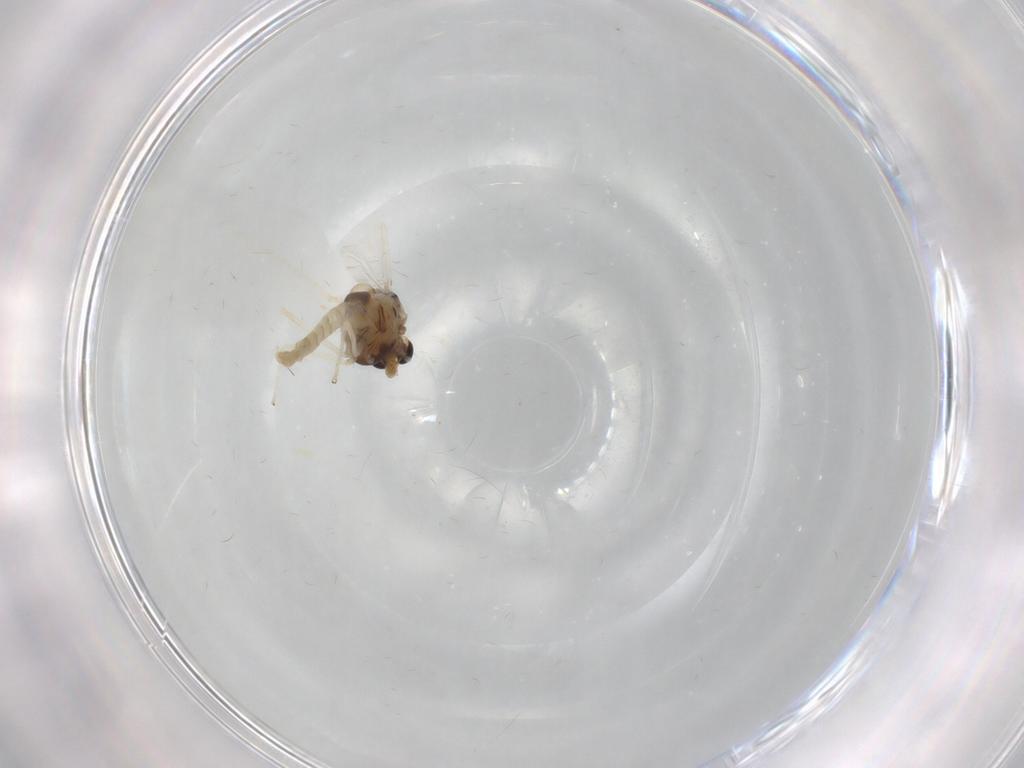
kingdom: Animalia
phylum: Arthropoda
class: Insecta
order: Diptera
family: Chironomidae
